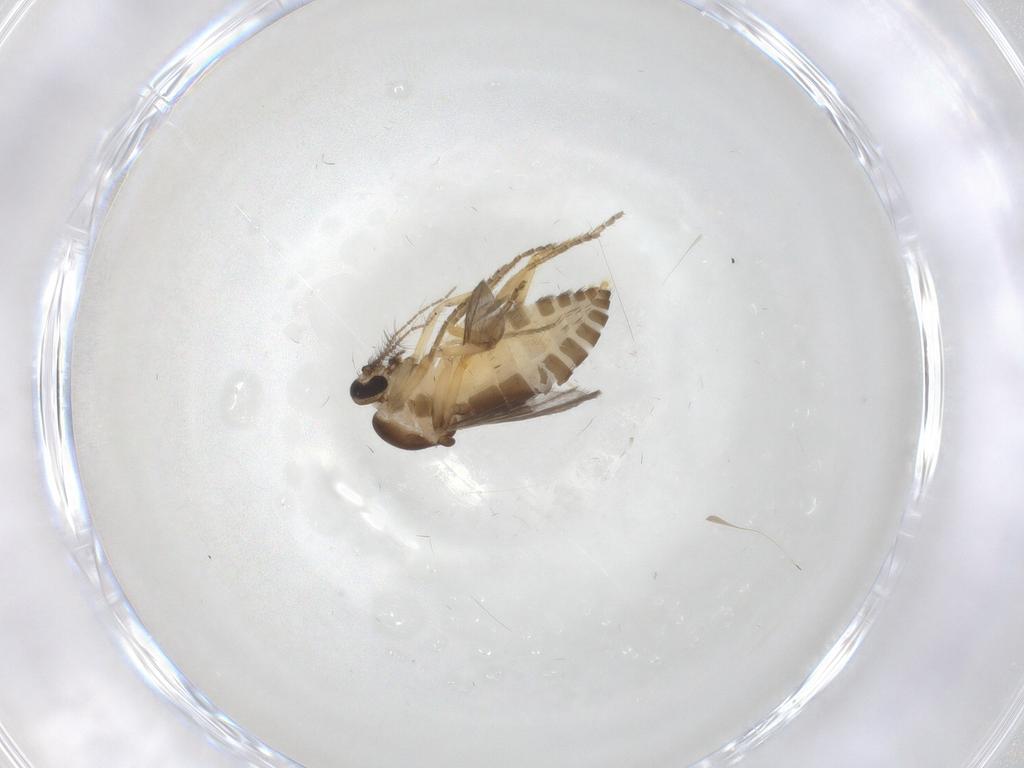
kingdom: Animalia
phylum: Arthropoda
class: Insecta
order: Diptera
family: Ceratopogonidae
